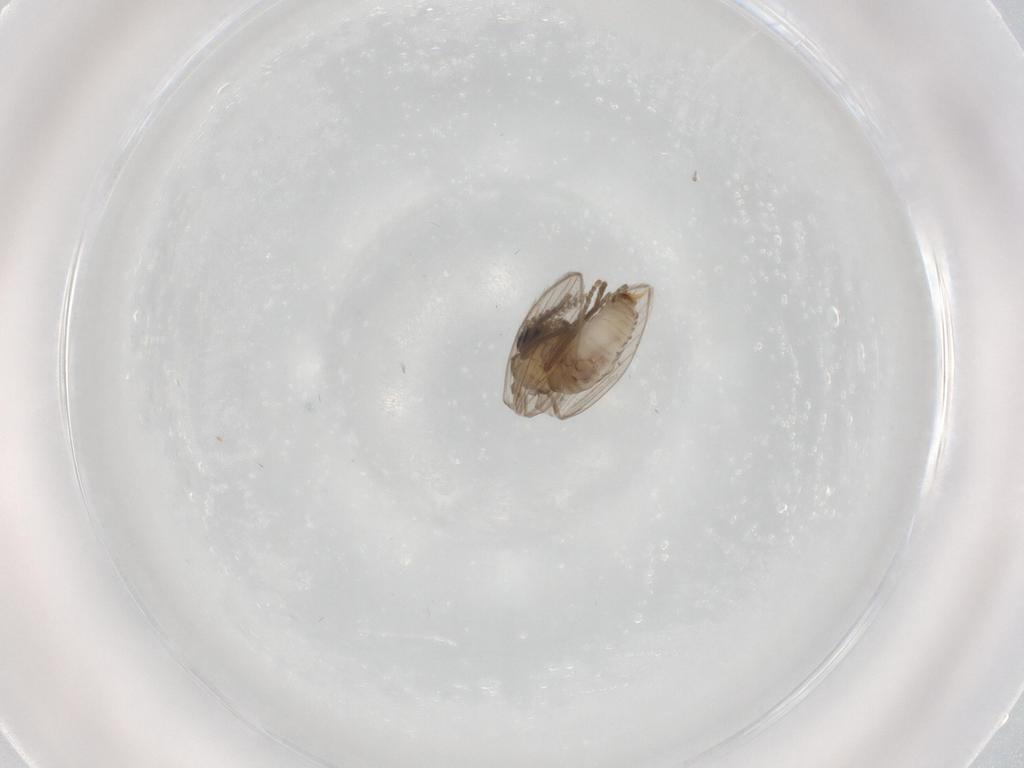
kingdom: Animalia
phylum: Arthropoda
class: Insecta
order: Diptera
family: Psychodidae
